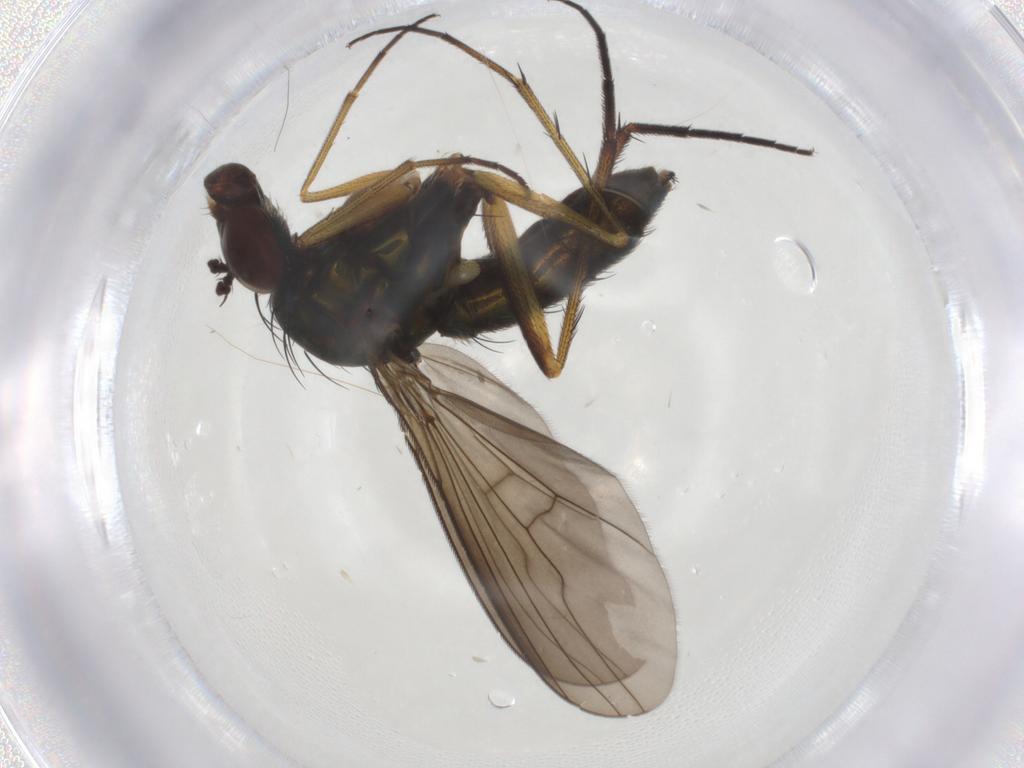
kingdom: Animalia
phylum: Arthropoda
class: Insecta
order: Diptera
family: Dolichopodidae
